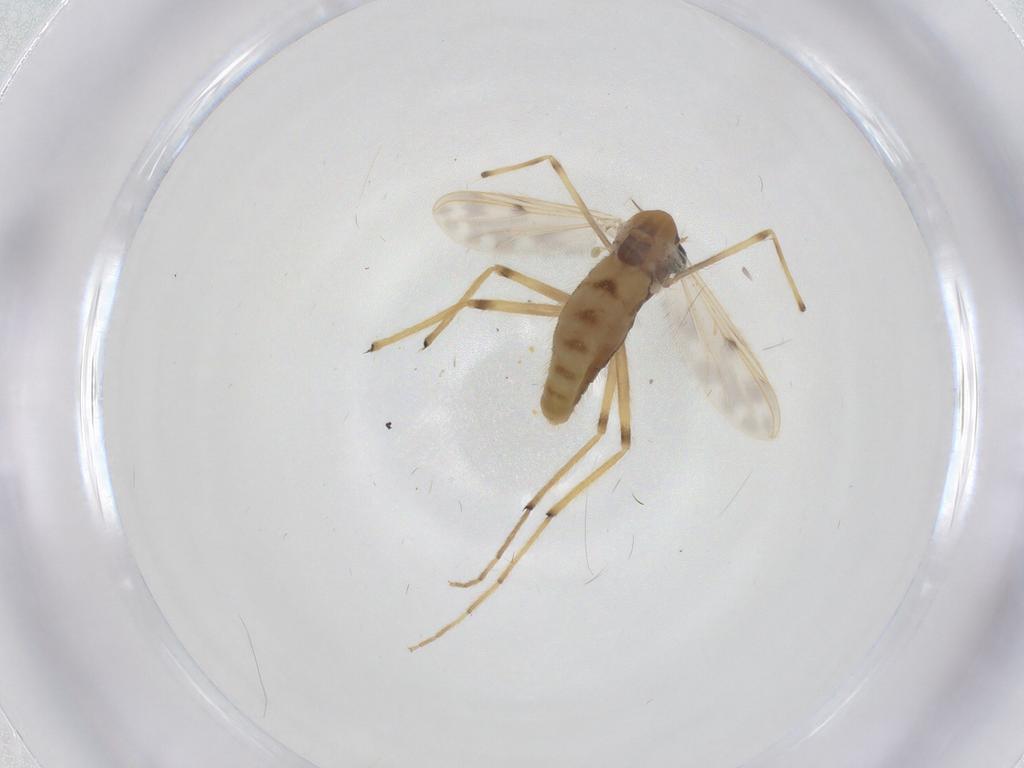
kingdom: Animalia
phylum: Arthropoda
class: Insecta
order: Diptera
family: Chironomidae
